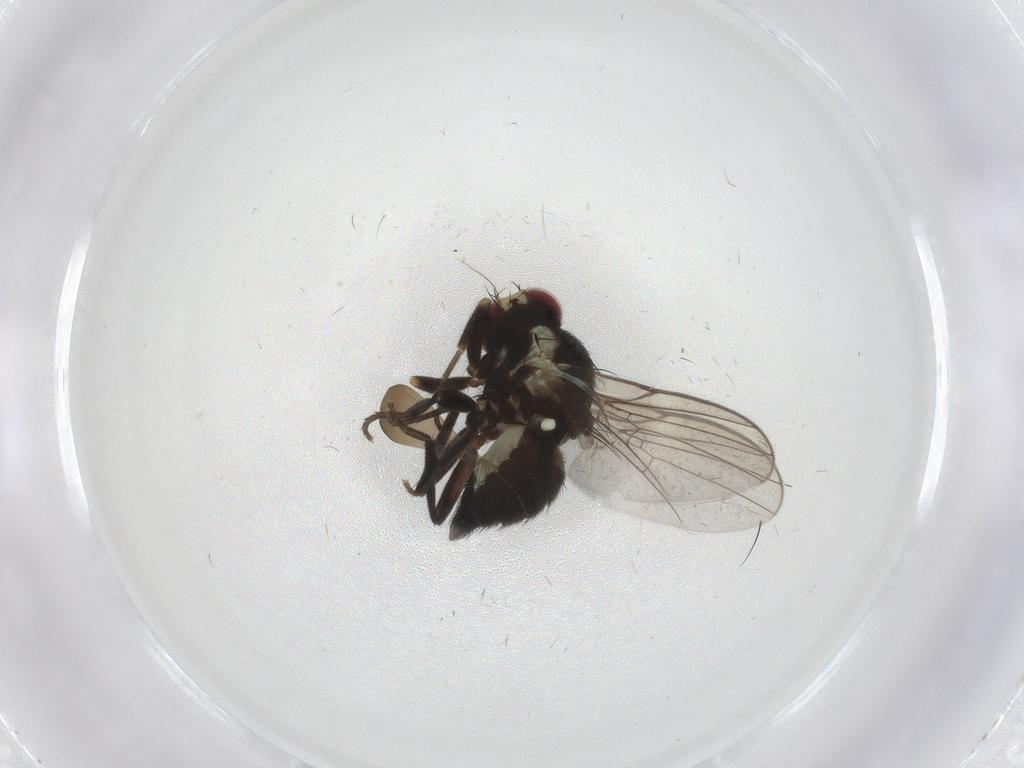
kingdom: Animalia
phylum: Arthropoda
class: Insecta
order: Diptera
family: Agromyzidae
